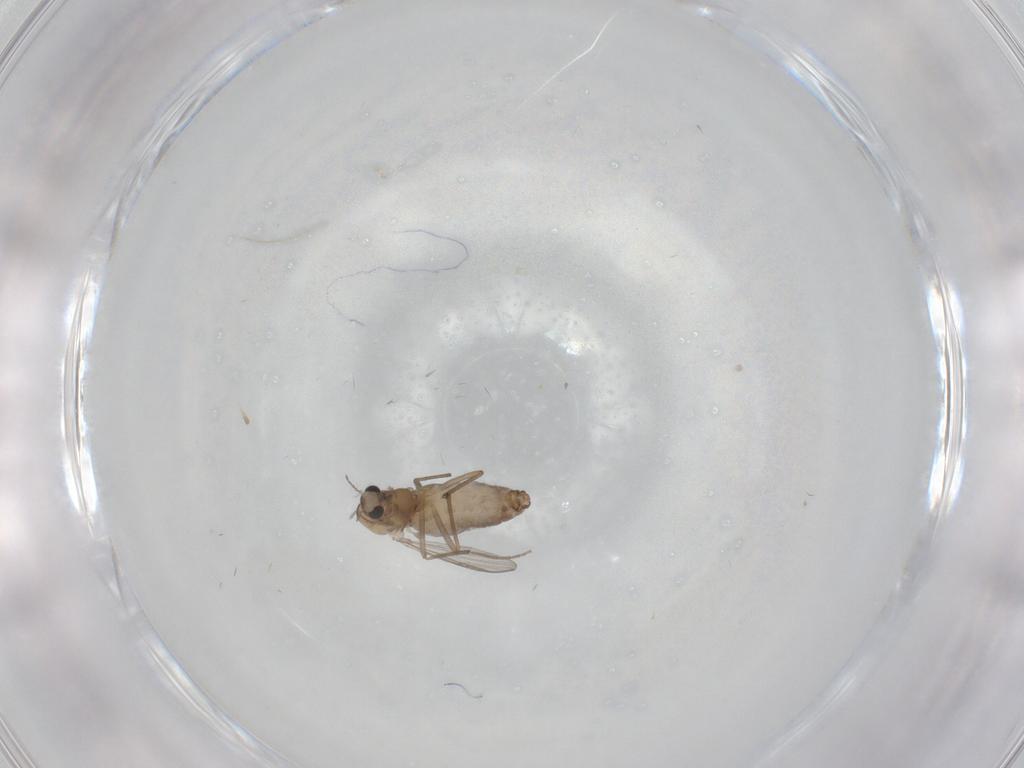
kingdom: Animalia
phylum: Arthropoda
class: Insecta
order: Diptera
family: Chironomidae
